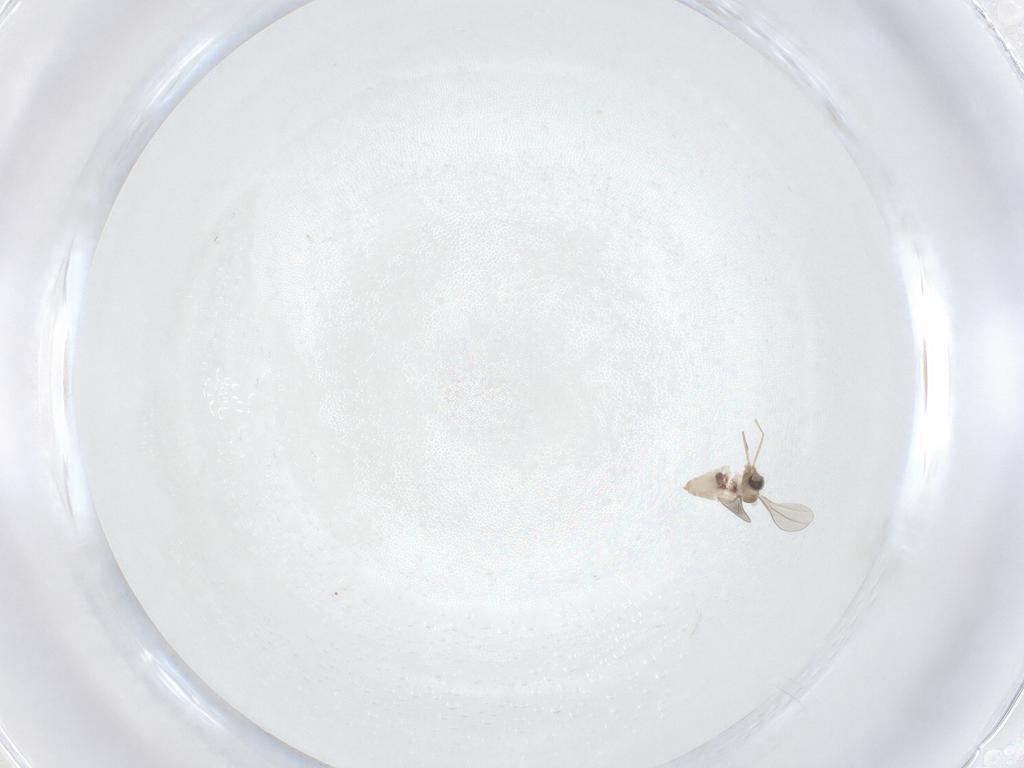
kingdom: Animalia
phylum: Arthropoda
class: Insecta
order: Diptera
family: Cecidomyiidae
